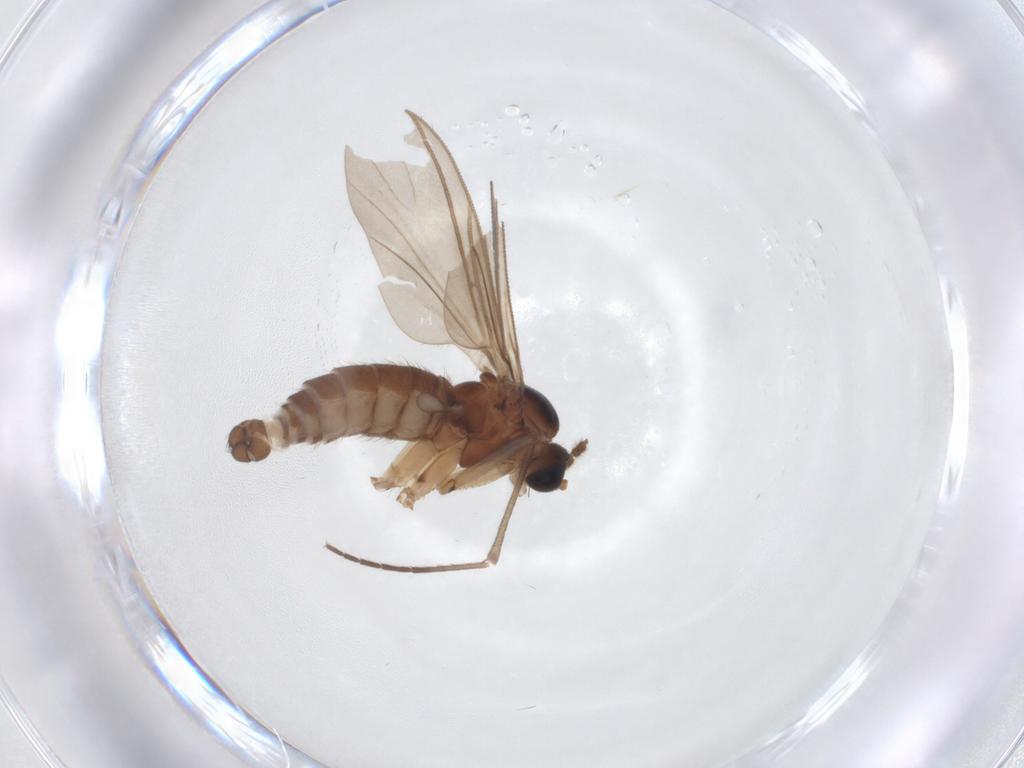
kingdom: Animalia
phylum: Arthropoda
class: Insecta
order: Diptera
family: Sciaridae
